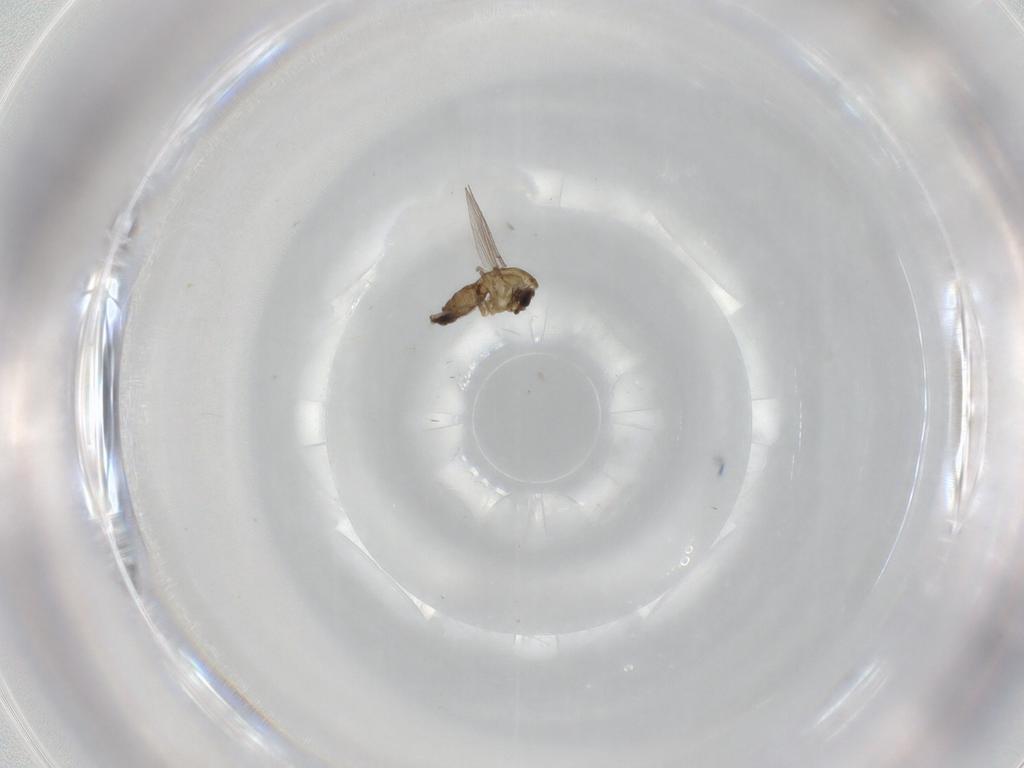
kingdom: Animalia
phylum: Arthropoda
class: Insecta
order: Diptera
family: Chironomidae
